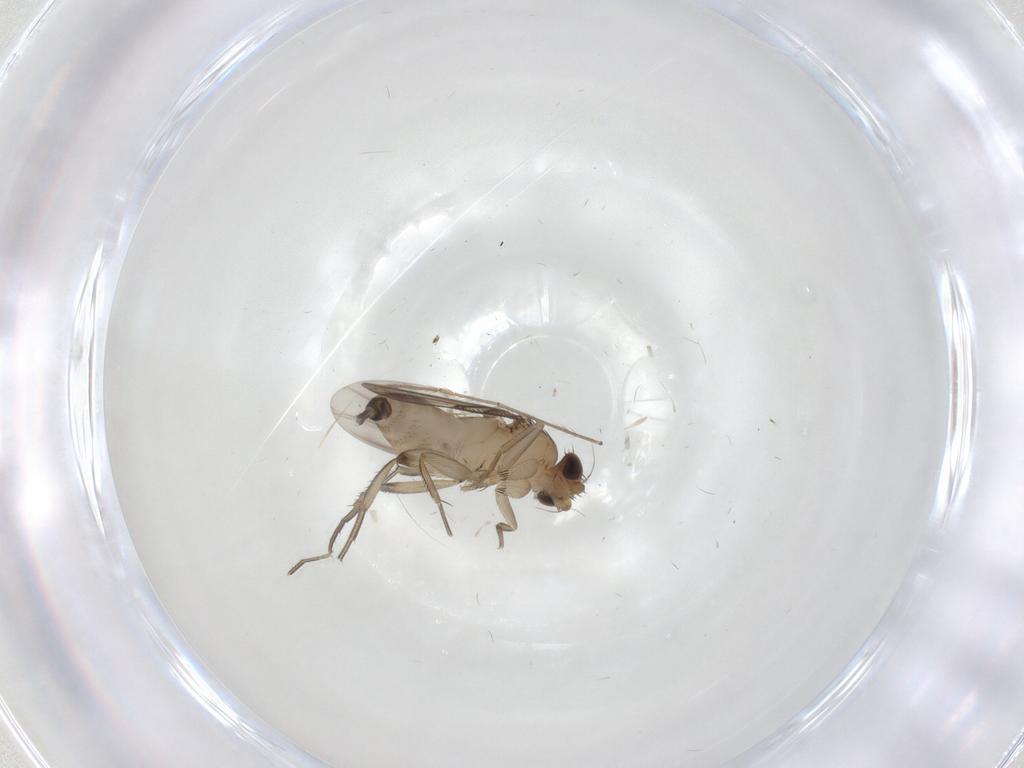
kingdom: Animalia
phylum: Arthropoda
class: Insecta
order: Diptera
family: Phoridae
